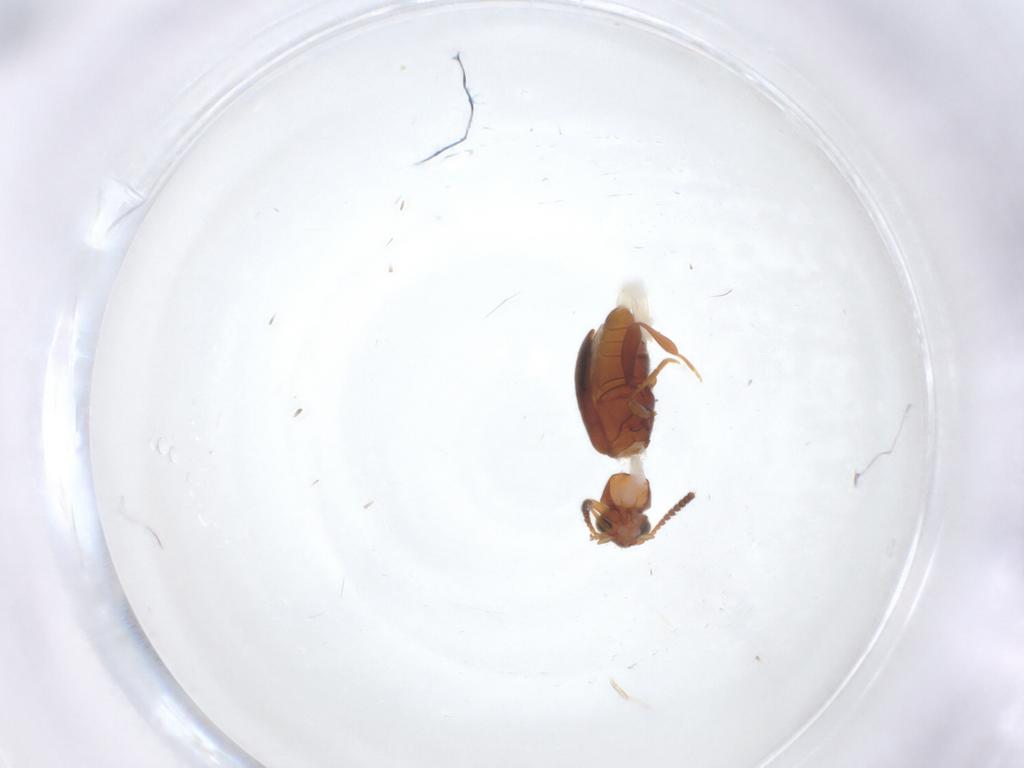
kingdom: Animalia
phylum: Arthropoda
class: Insecta
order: Coleoptera
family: Aderidae
